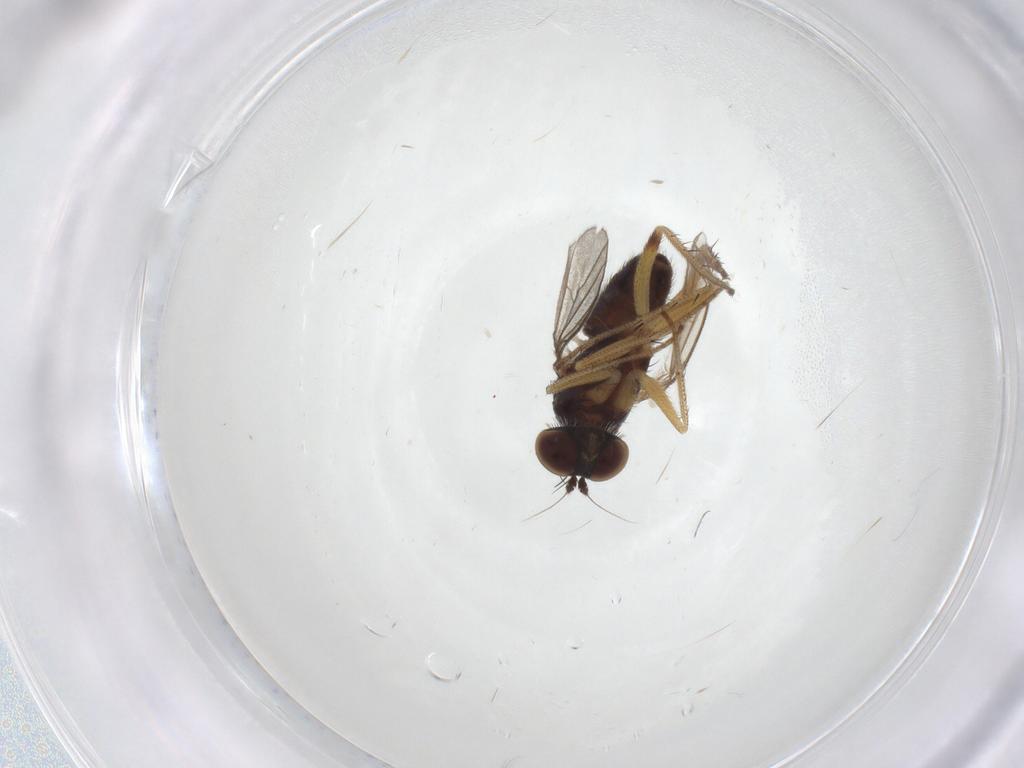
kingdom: Animalia
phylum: Arthropoda
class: Insecta
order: Diptera
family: Dolichopodidae
